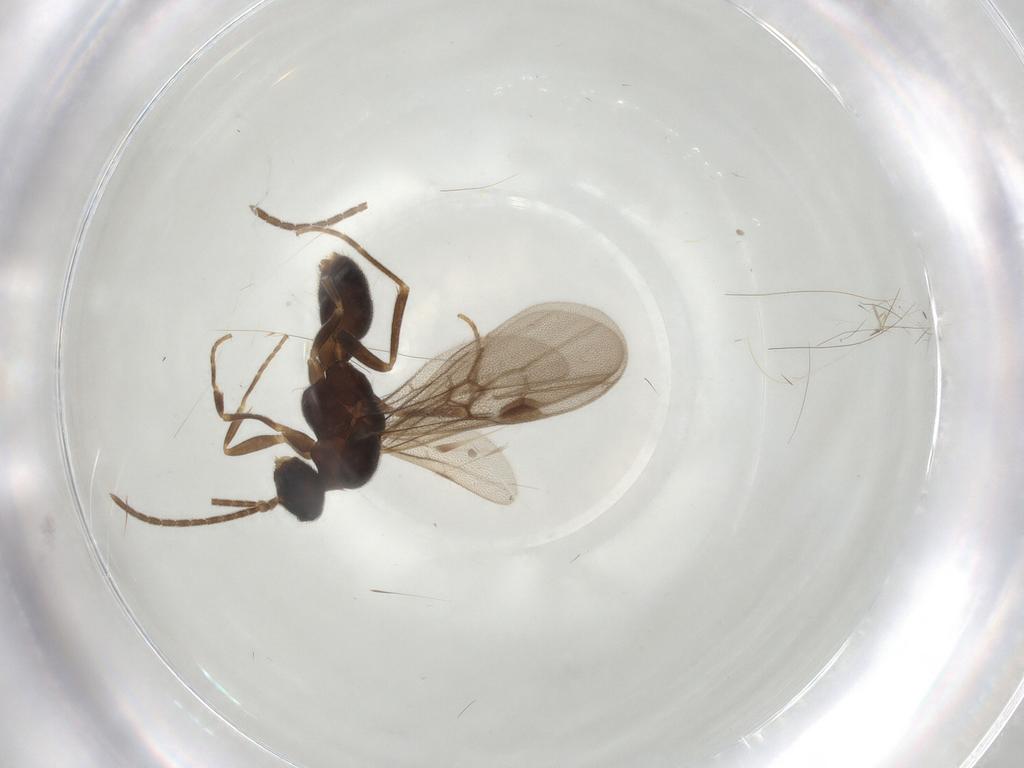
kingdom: Animalia
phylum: Arthropoda
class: Insecta
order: Hymenoptera
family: Formicidae
